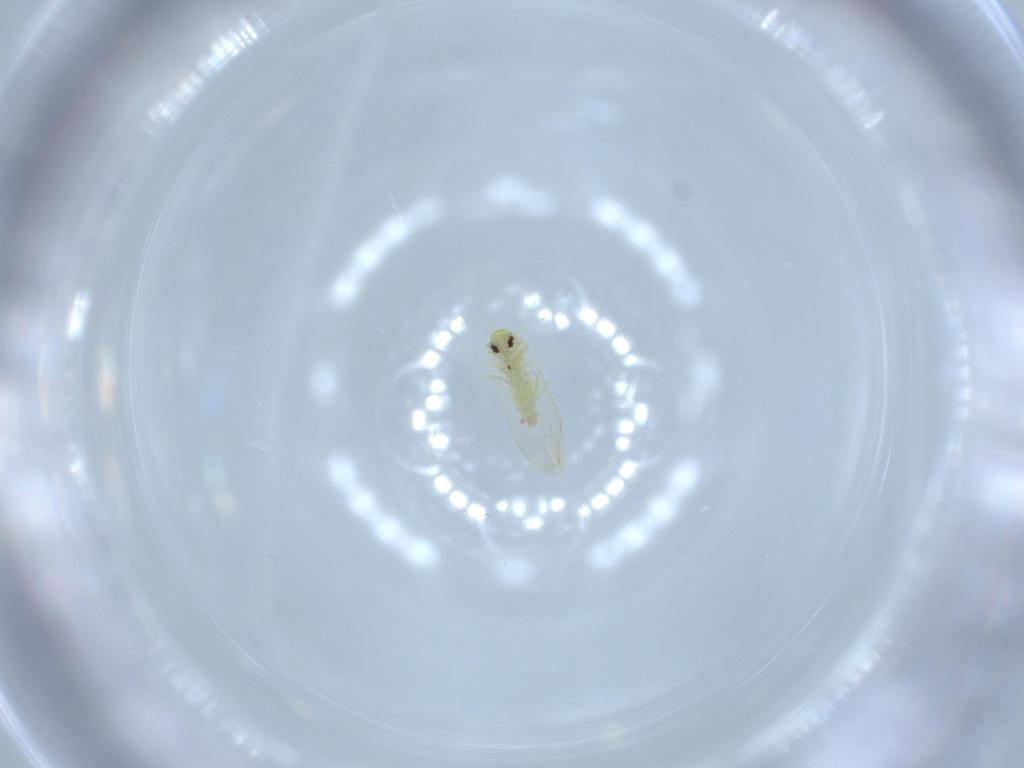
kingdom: Animalia
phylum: Arthropoda
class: Insecta
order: Hemiptera
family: Aleyrodidae
